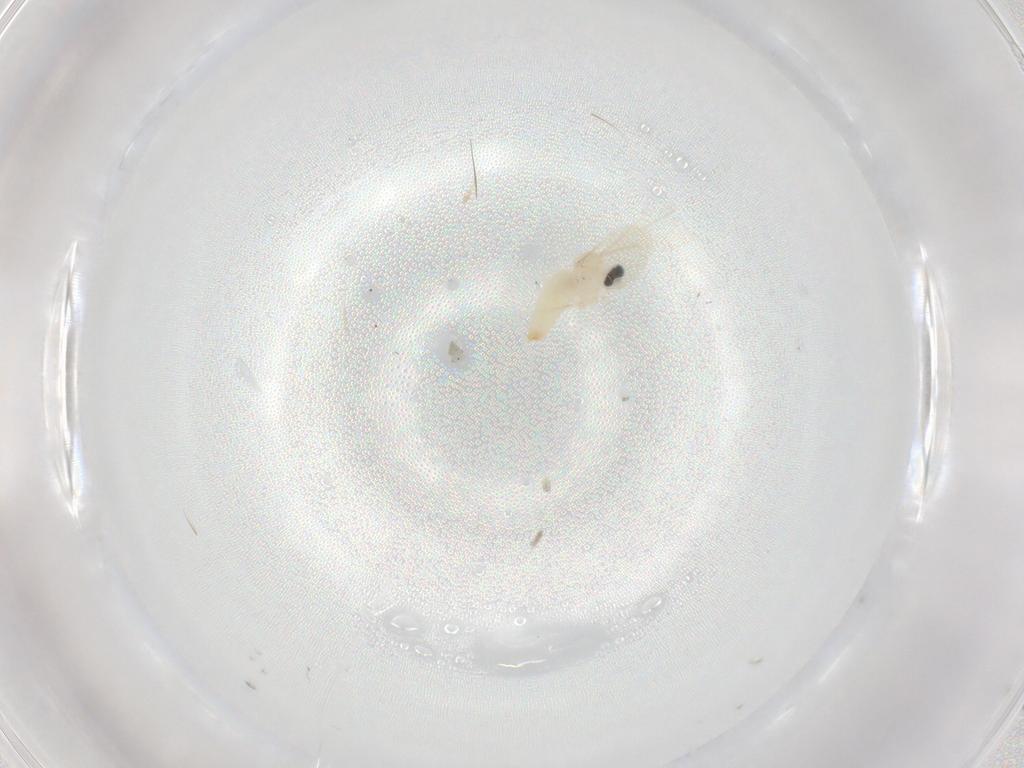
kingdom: Animalia
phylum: Arthropoda
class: Insecta
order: Diptera
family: Cecidomyiidae
